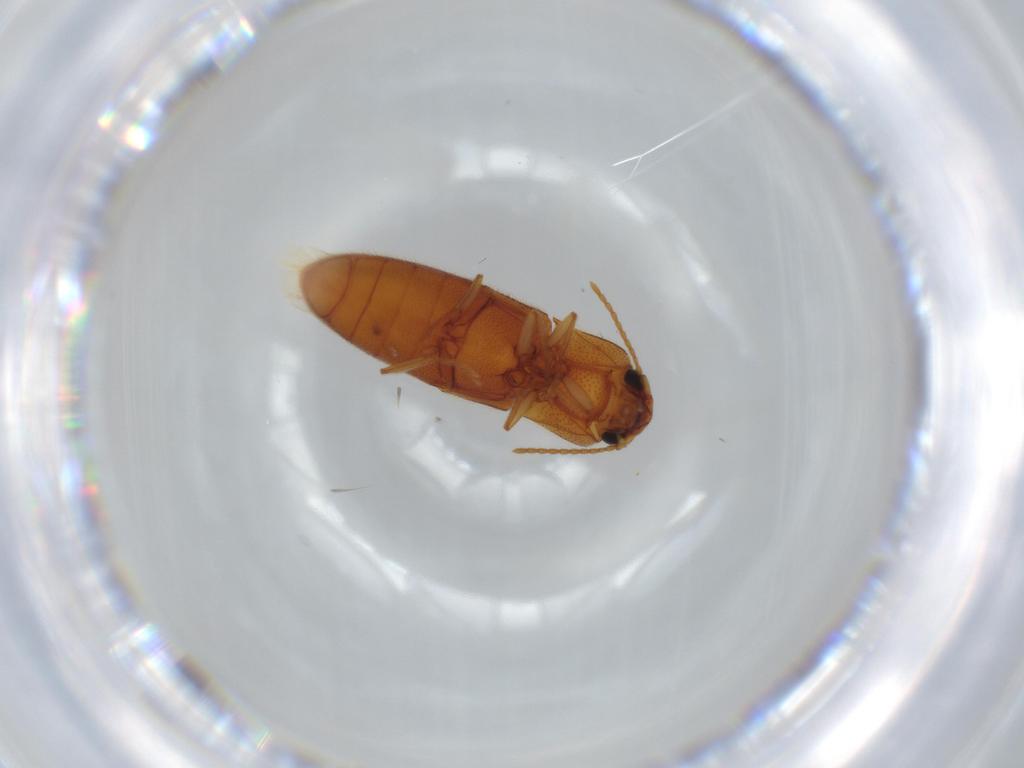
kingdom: Animalia
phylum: Arthropoda
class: Insecta
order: Coleoptera
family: Elateridae
